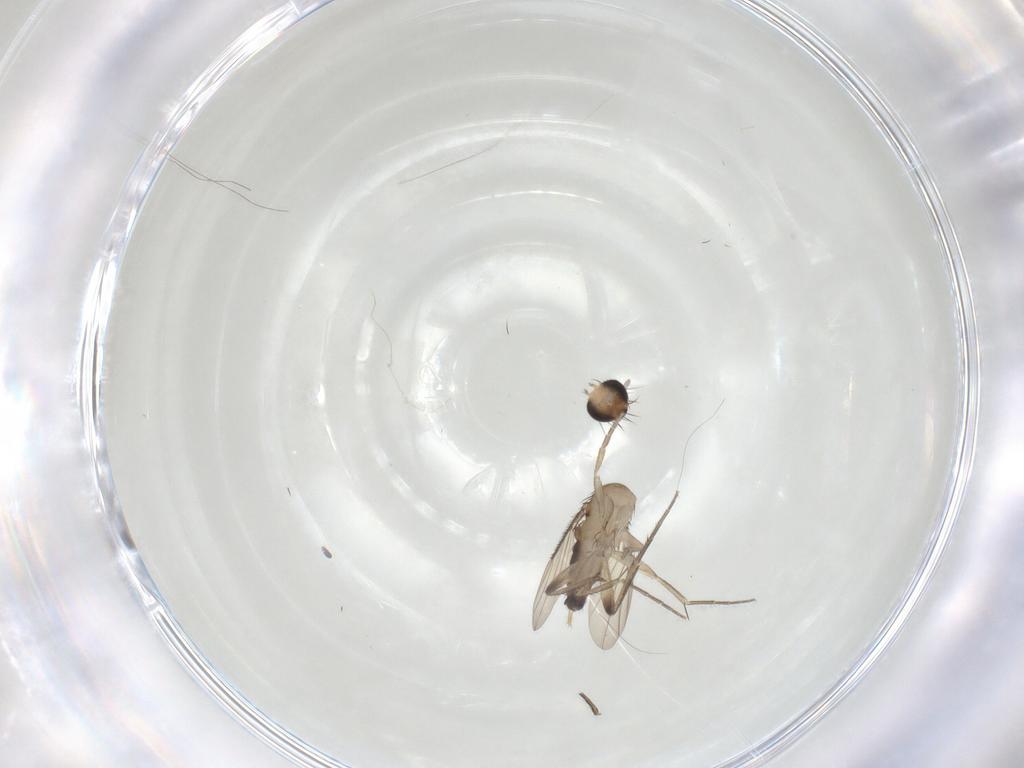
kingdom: Animalia
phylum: Arthropoda
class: Insecta
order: Diptera
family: Phoridae
